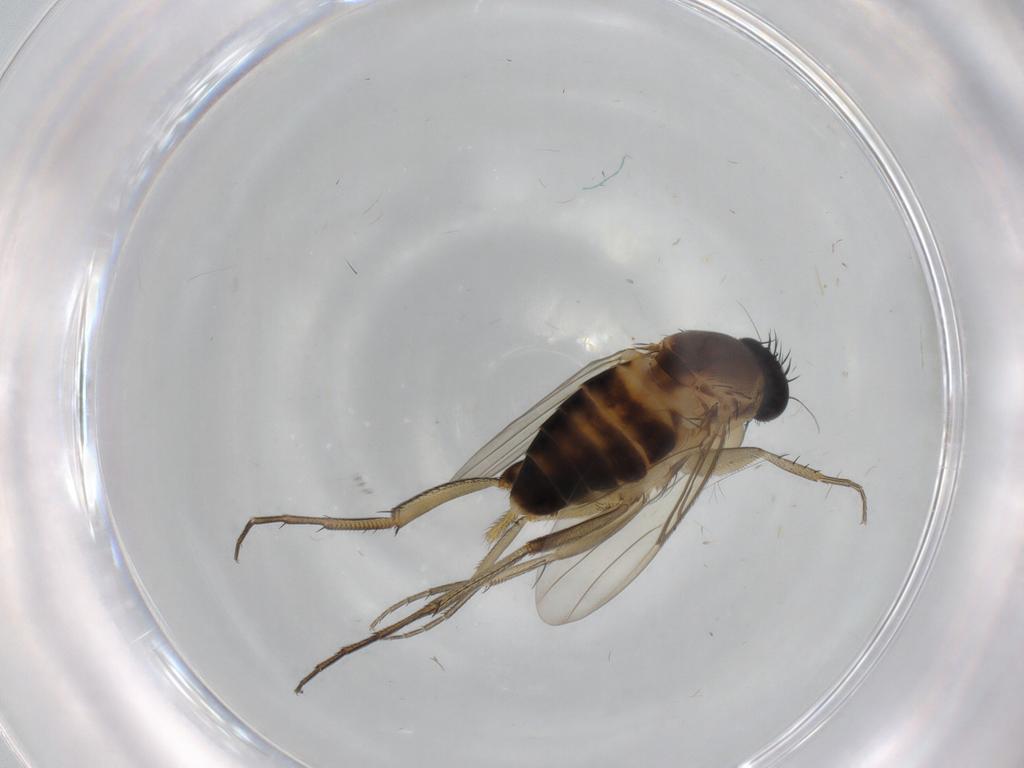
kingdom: Animalia
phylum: Arthropoda
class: Insecta
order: Diptera
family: Phoridae
